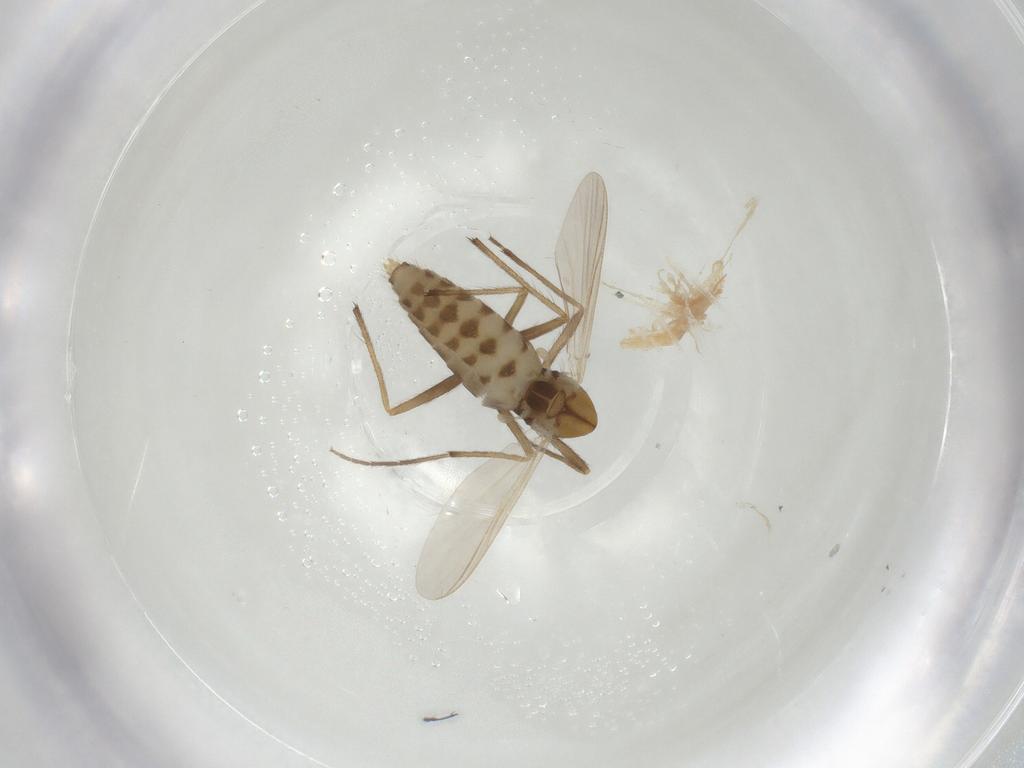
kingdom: Animalia
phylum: Arthropoda
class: Insecta
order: Diptera
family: Chironomidae
